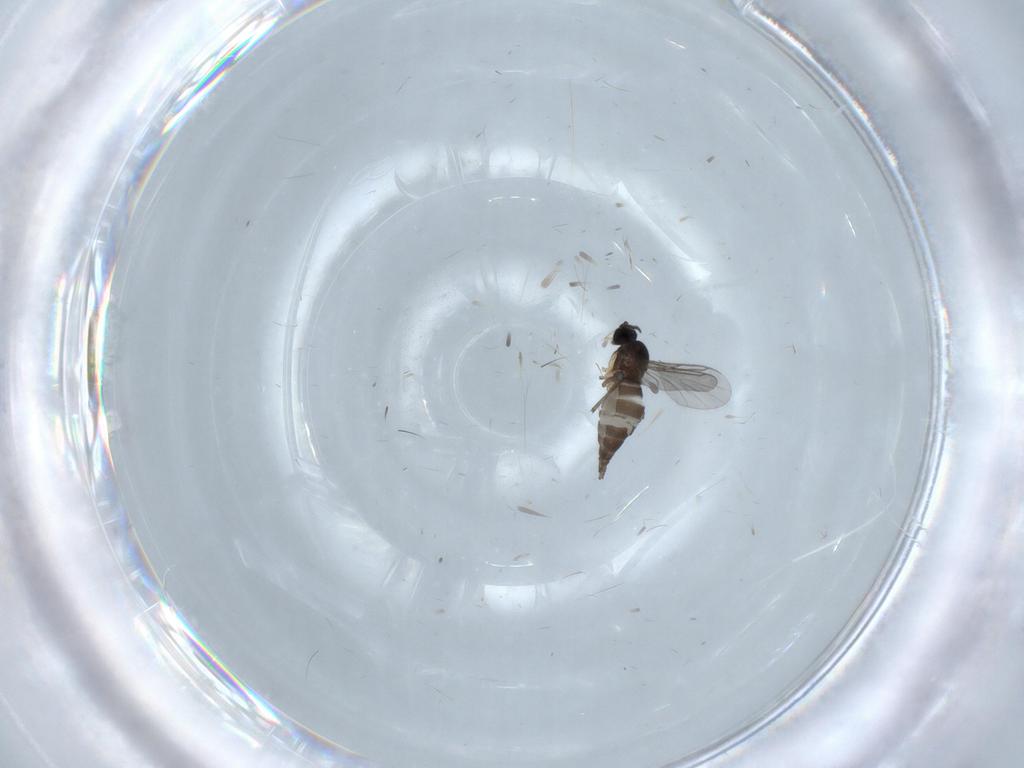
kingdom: Animalia
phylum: Arthropoda
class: Insecta
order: Diptera
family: Sciaridae
